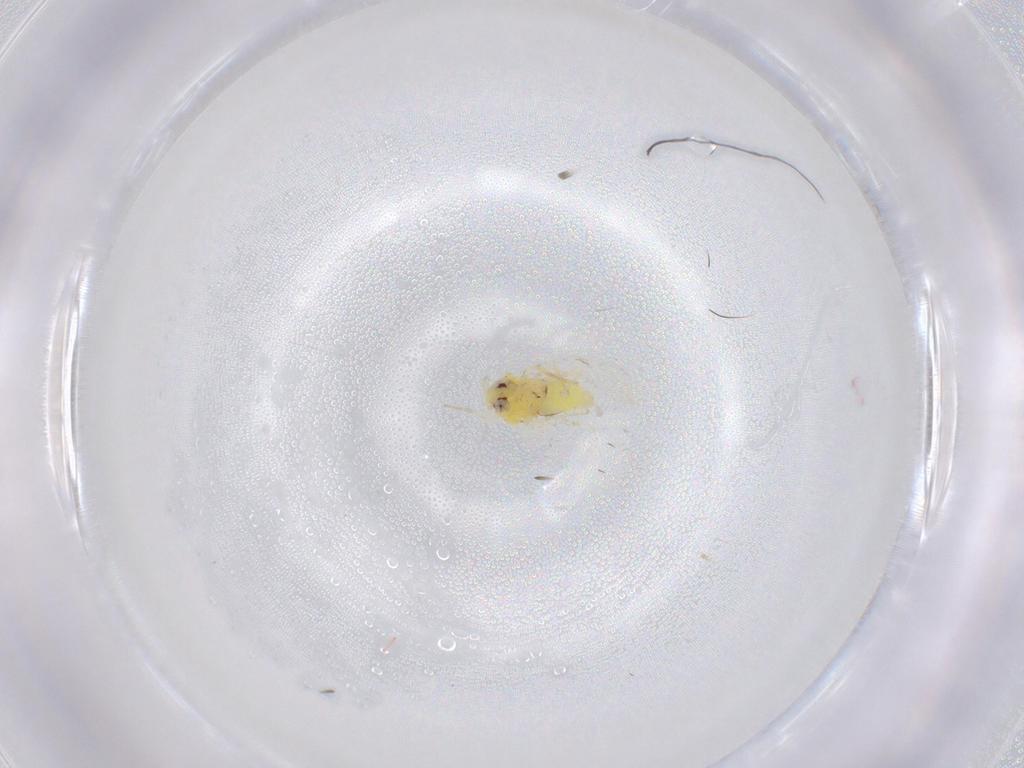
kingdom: Animalia
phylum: Arthropoda
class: Insecta
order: Hemiptera
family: Aleyrodidae
